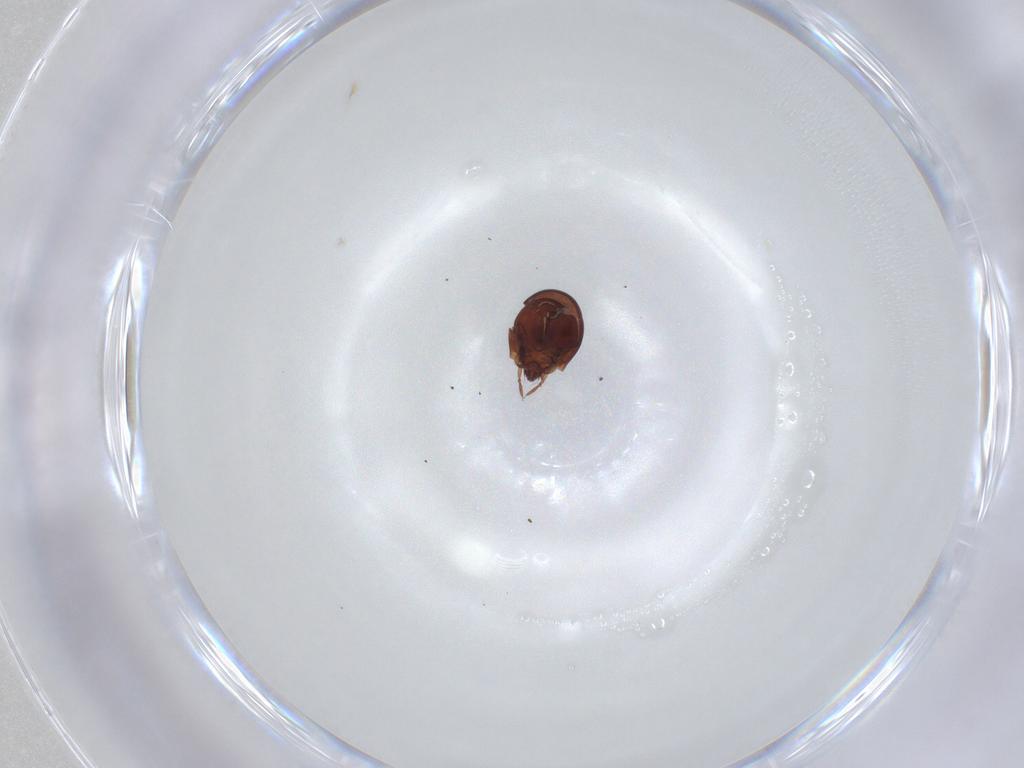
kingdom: Animalia
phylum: Arthropoda
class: Arachnida
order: Sarcoptiformes
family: Humerobatidae
